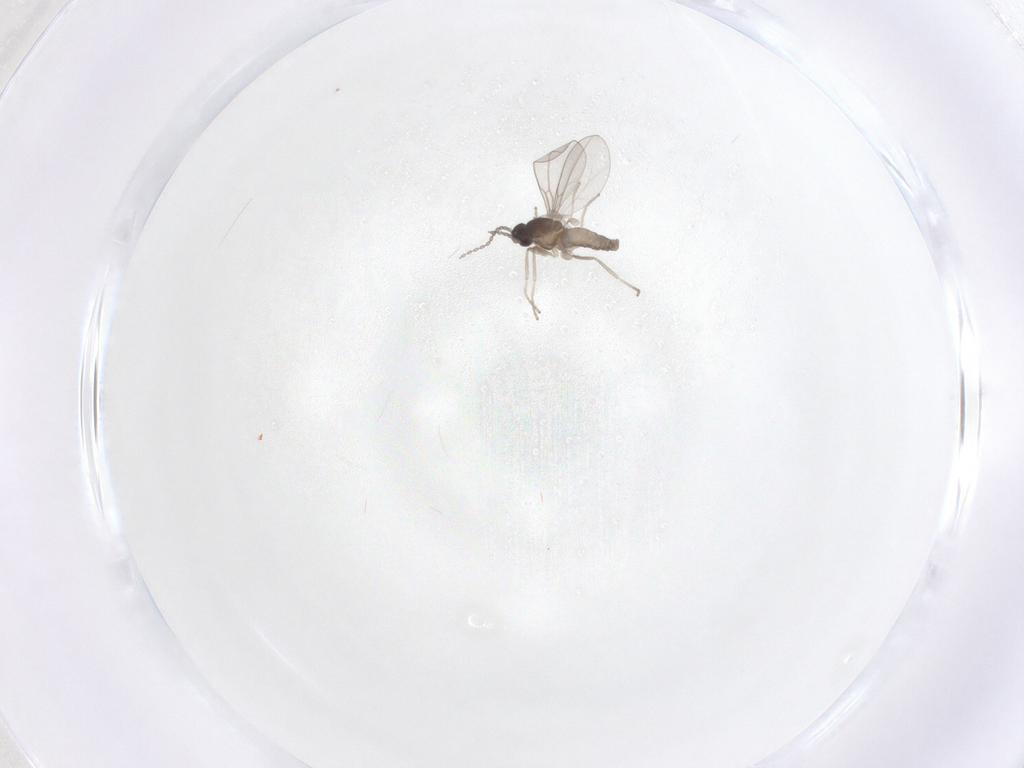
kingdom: Animalia
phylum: Arthropoda
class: Insecta
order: Diptera
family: Cecidomyiidae
